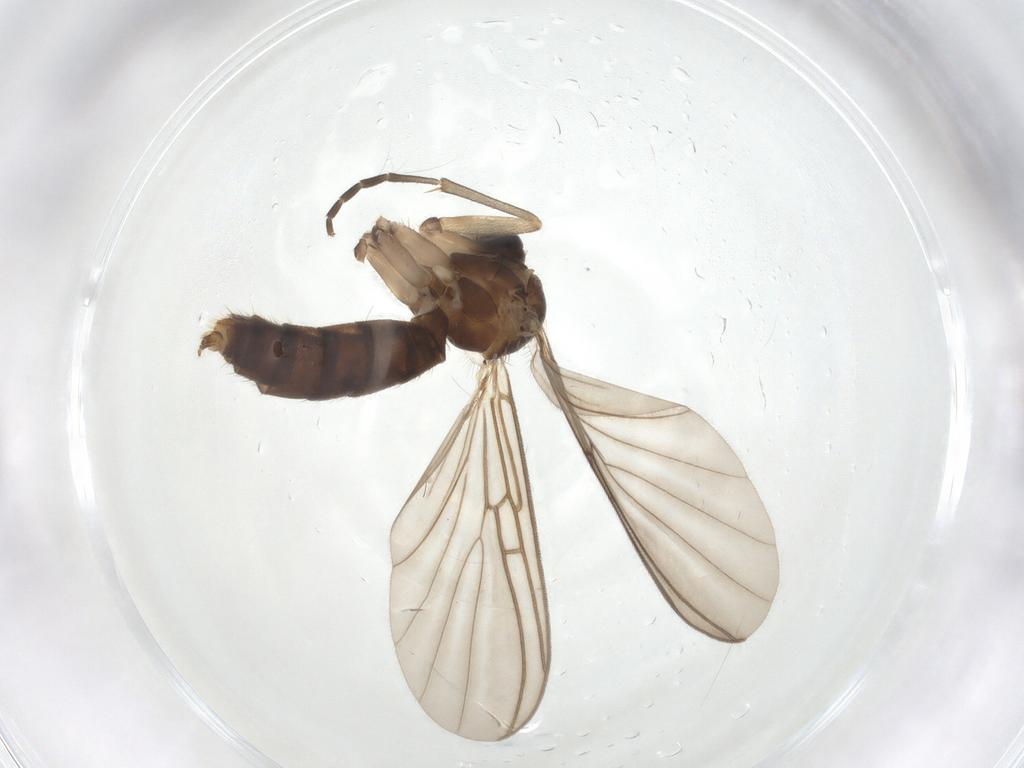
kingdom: Animalia
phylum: Arthropoda
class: Insecta
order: Diptera
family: Mycetophilidae
